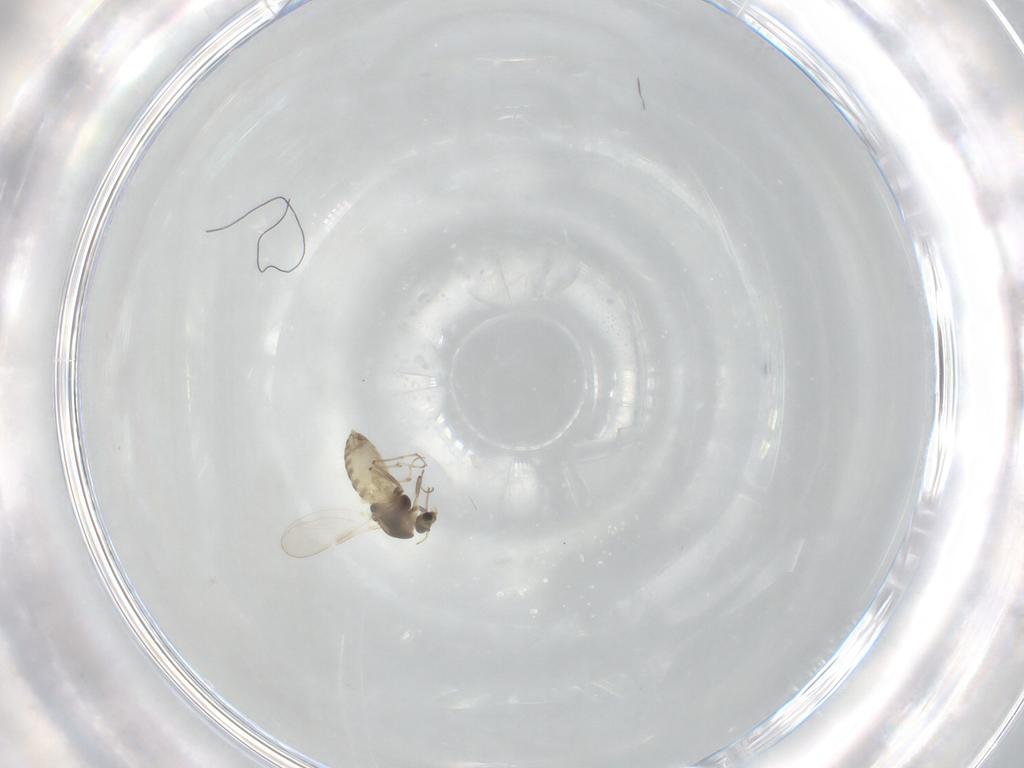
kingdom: Animalia
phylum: Arthropoda
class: Insecta
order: Diptera
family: Chironomidae
